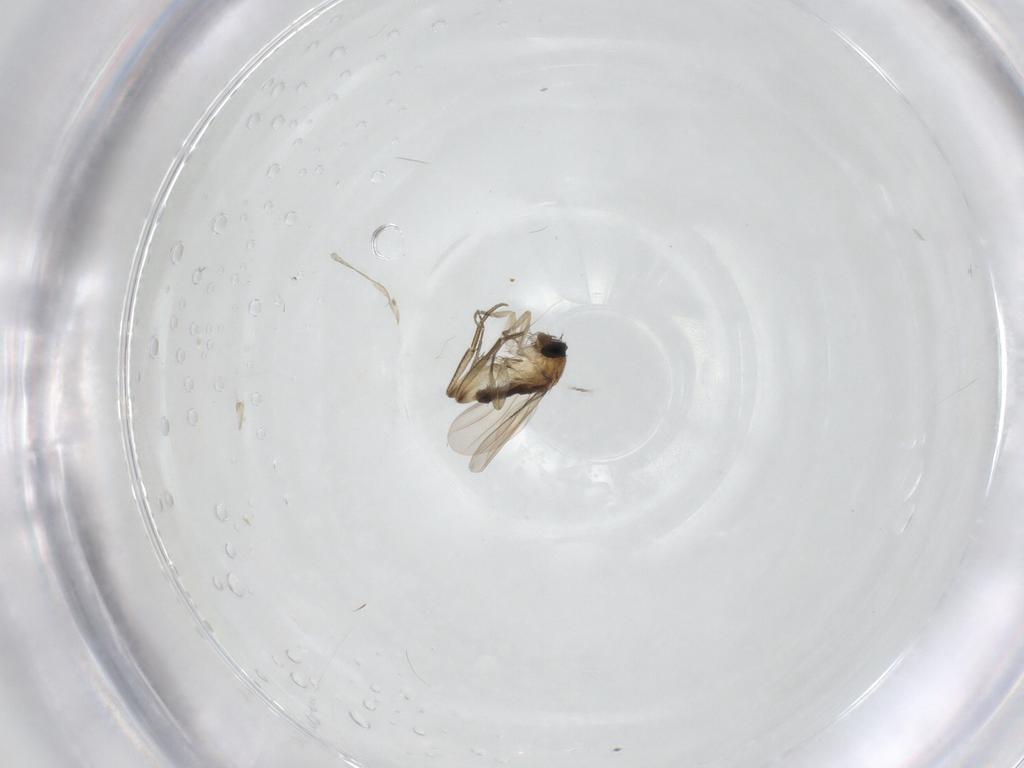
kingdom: Animalia
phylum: Arthropoda
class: Insecta
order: Diptera
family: Phoridae
